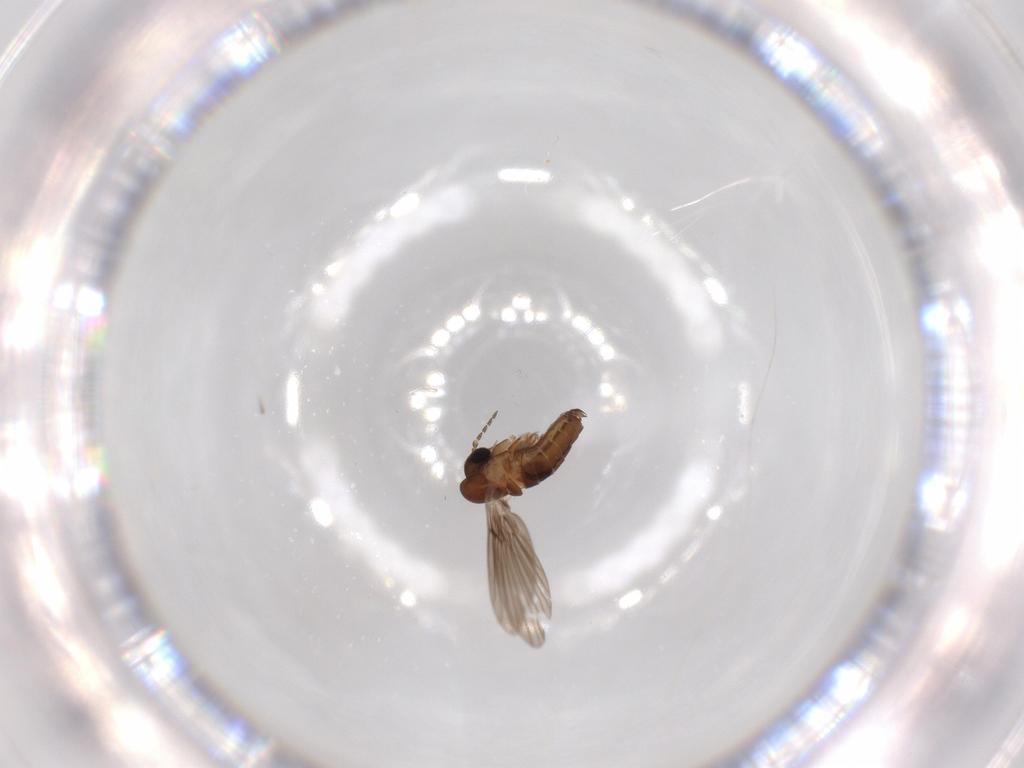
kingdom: Animalia
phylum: Arthropoda
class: Insecta
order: Diptera
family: Psychodidae
